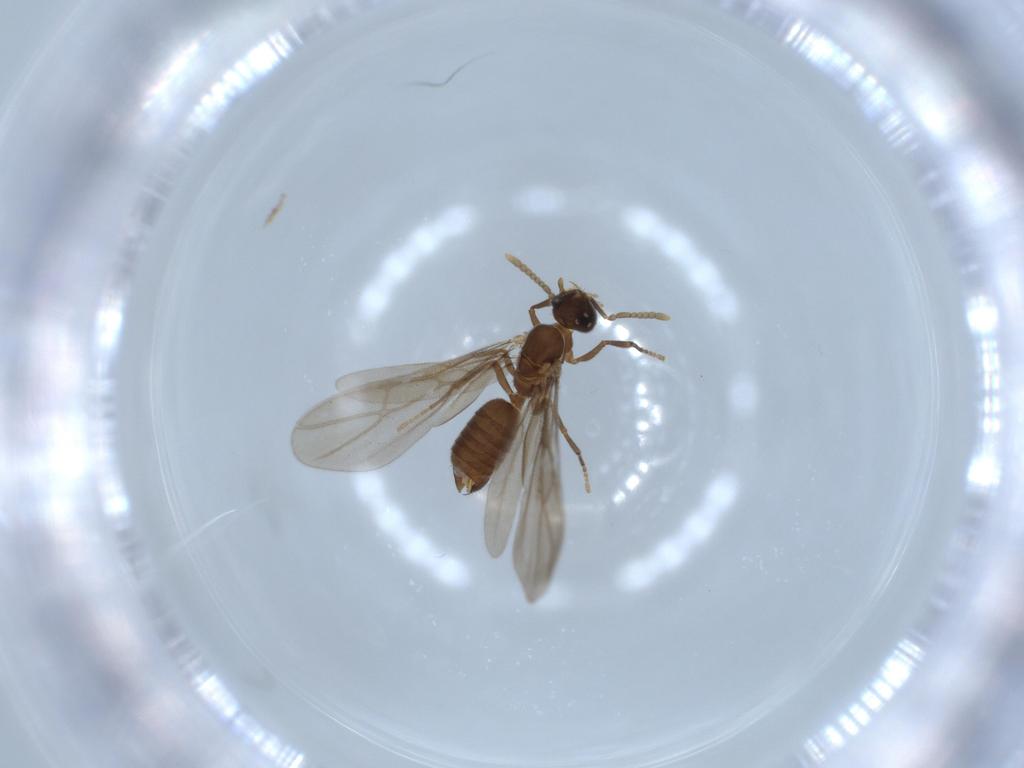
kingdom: Animalia
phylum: Arthropoda
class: Insecta
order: Hymenoptera
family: Formicidae
